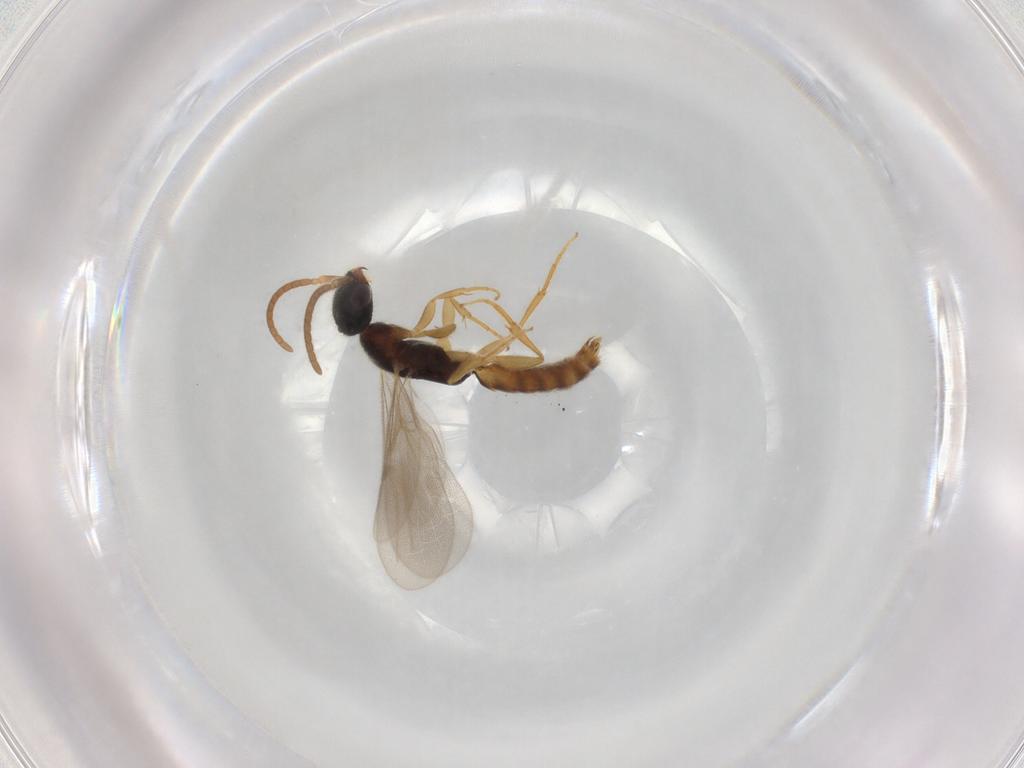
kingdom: Animalia
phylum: Arthropoda
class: Insecta
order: Hymenoptera
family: Bethylidae
